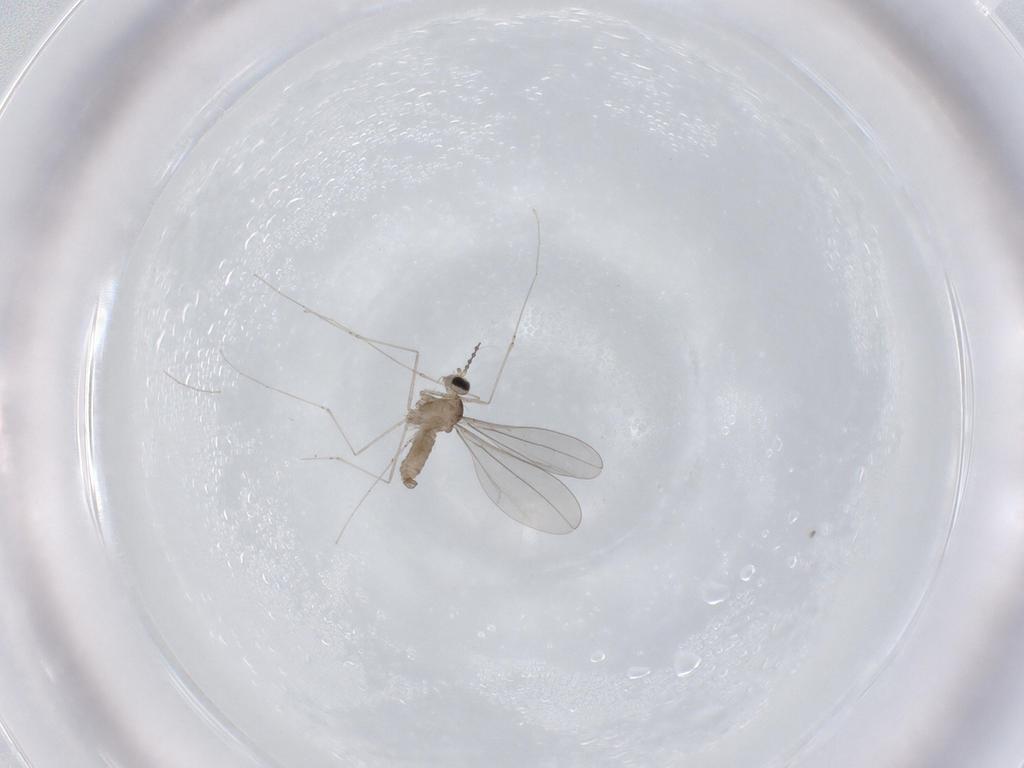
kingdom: Animalia
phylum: Arthropoda
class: Insecta
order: Diptera
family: Cecidomyiidae
